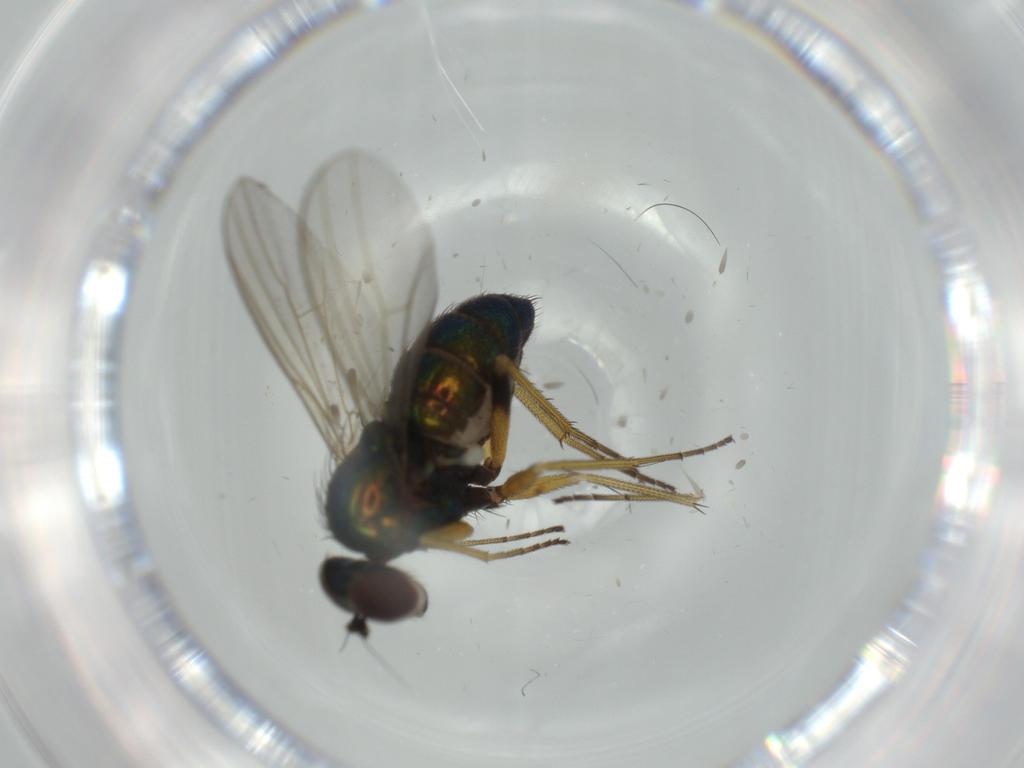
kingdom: Animalia
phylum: Arthropoda
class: Insecta
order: Diptera
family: Dolichopodidae
